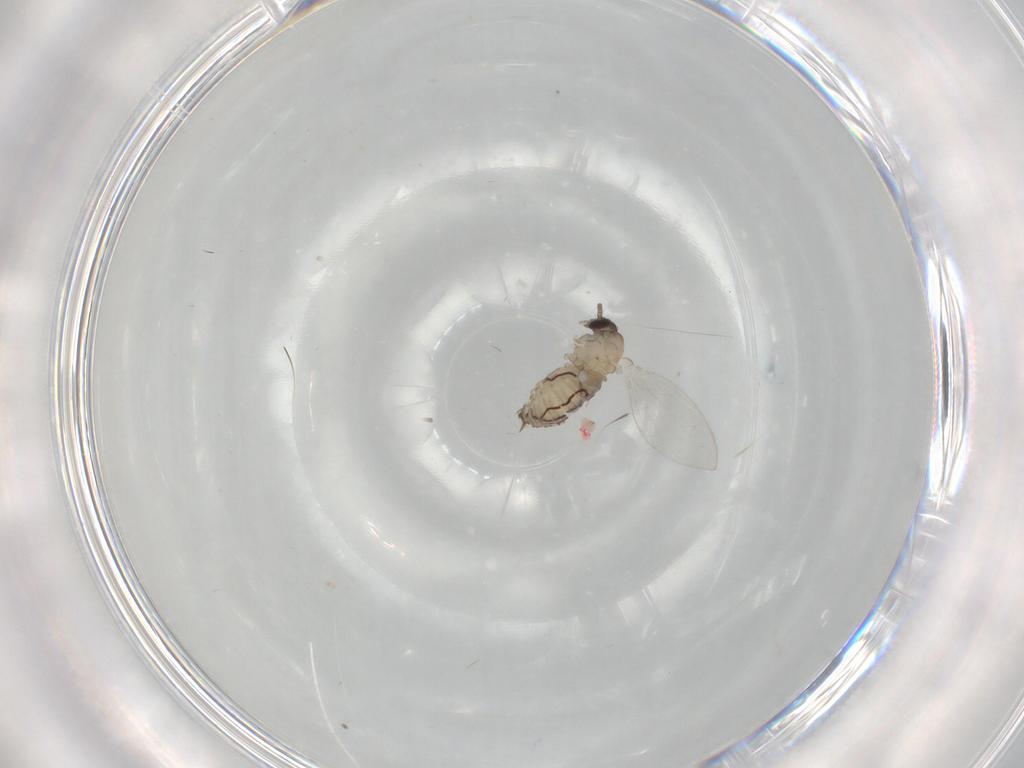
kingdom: Animalia
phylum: Arthropoda
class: Insecta
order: Diptera
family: Psychodidae
